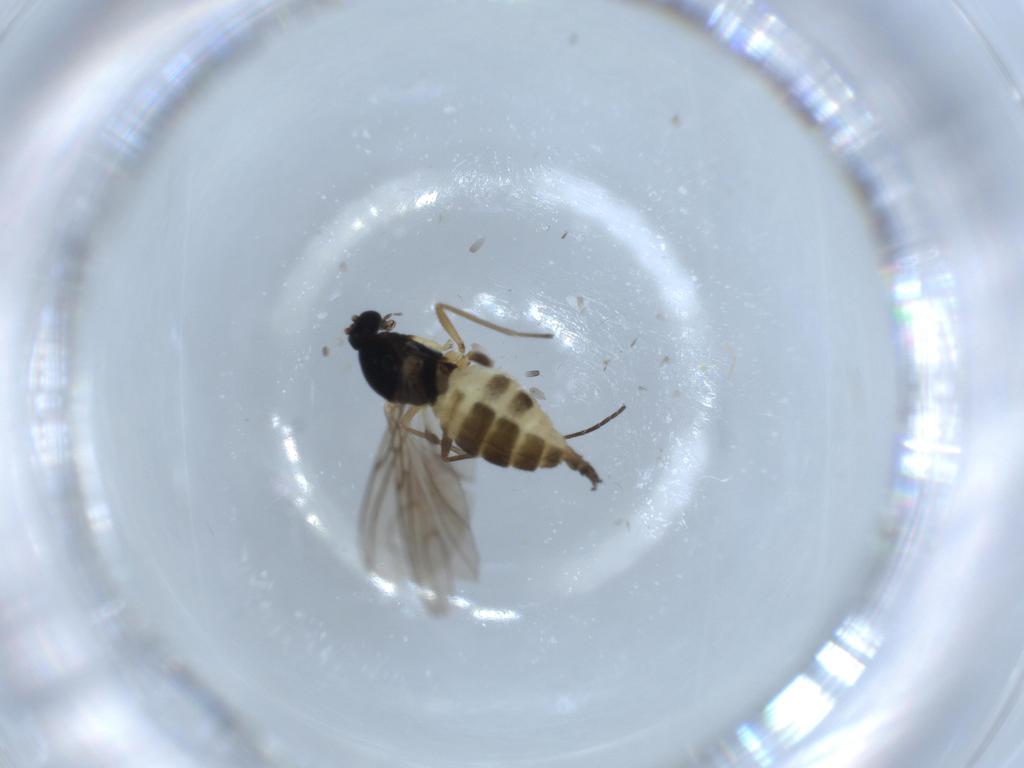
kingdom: Animalia
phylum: Arthropoda
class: Insecta
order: Diptera
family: Sciaridae
